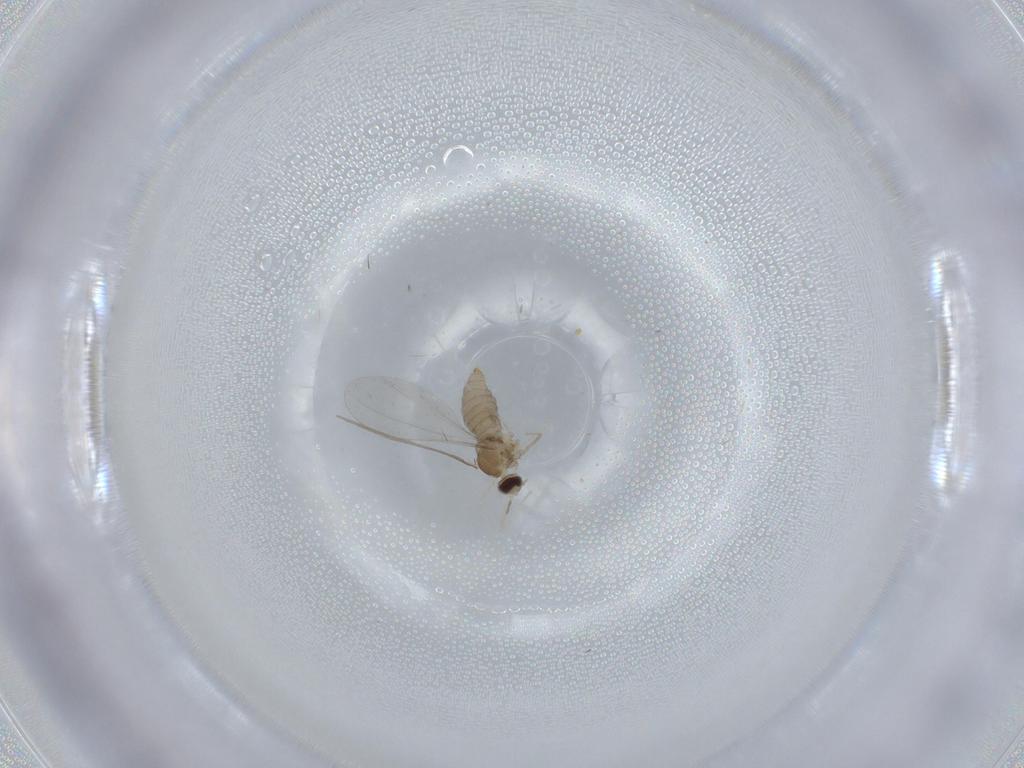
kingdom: Animalia
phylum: Arthropoda
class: Insecta
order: Diptera
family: Cecidomyiidae
